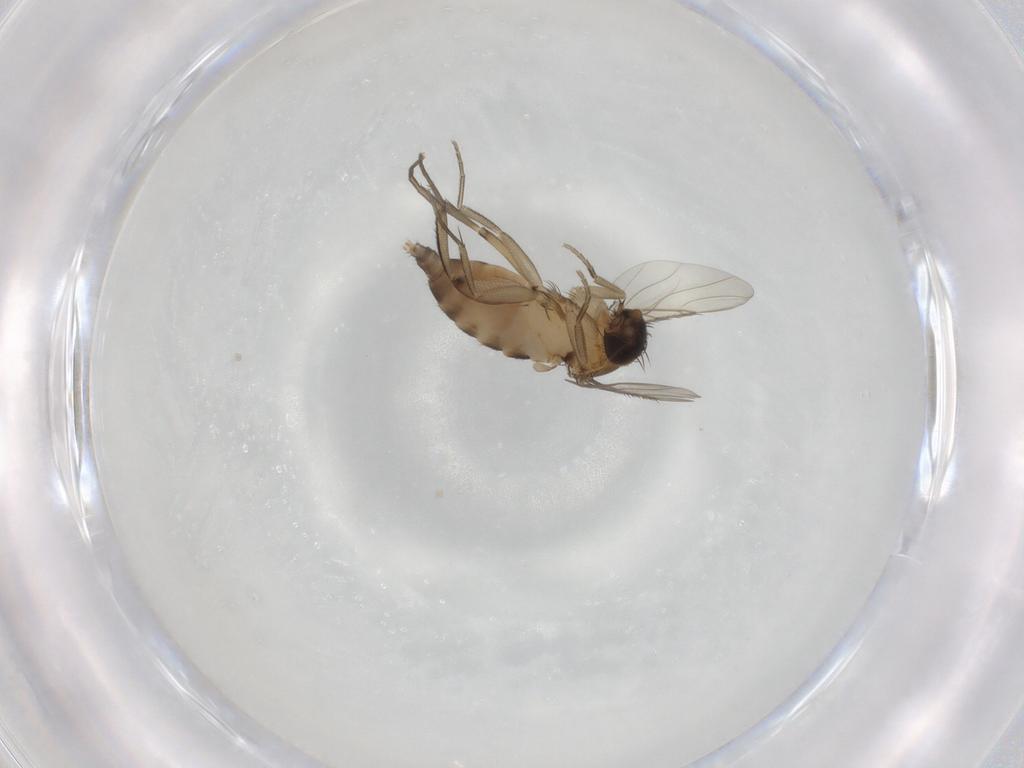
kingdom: Animalia
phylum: Arthropoda
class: Insecta
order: Diptera
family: Phoridae
